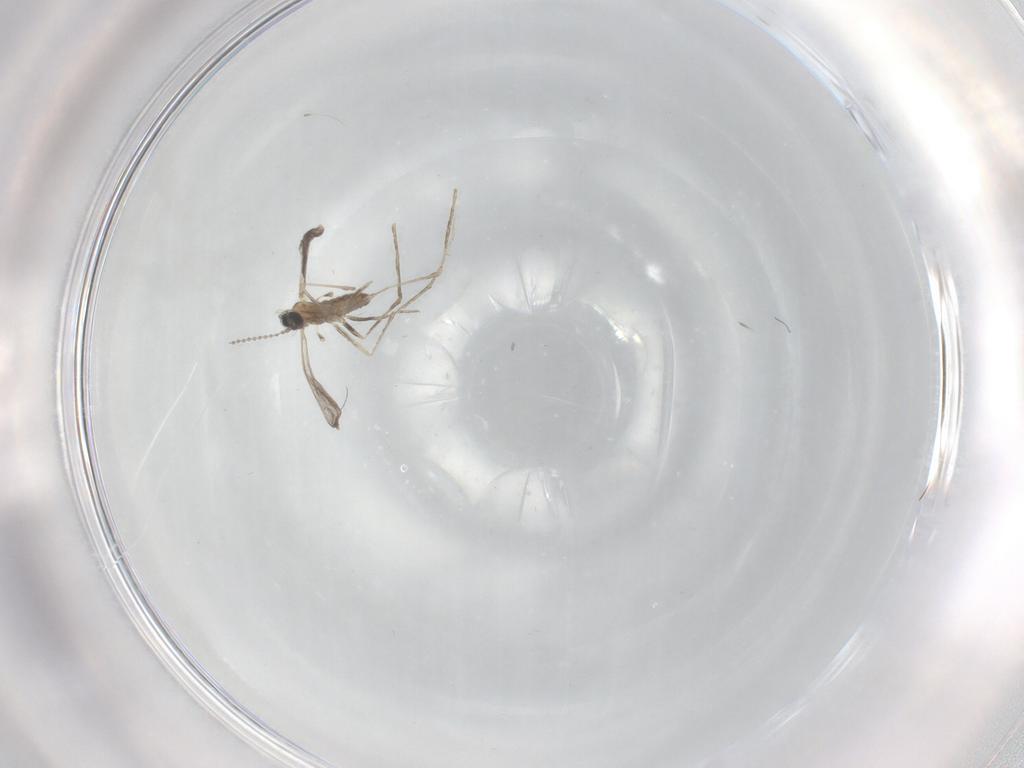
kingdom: Animalia
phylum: Arthropoda
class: Insecta
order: Diptera
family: Cecidomyiidae
